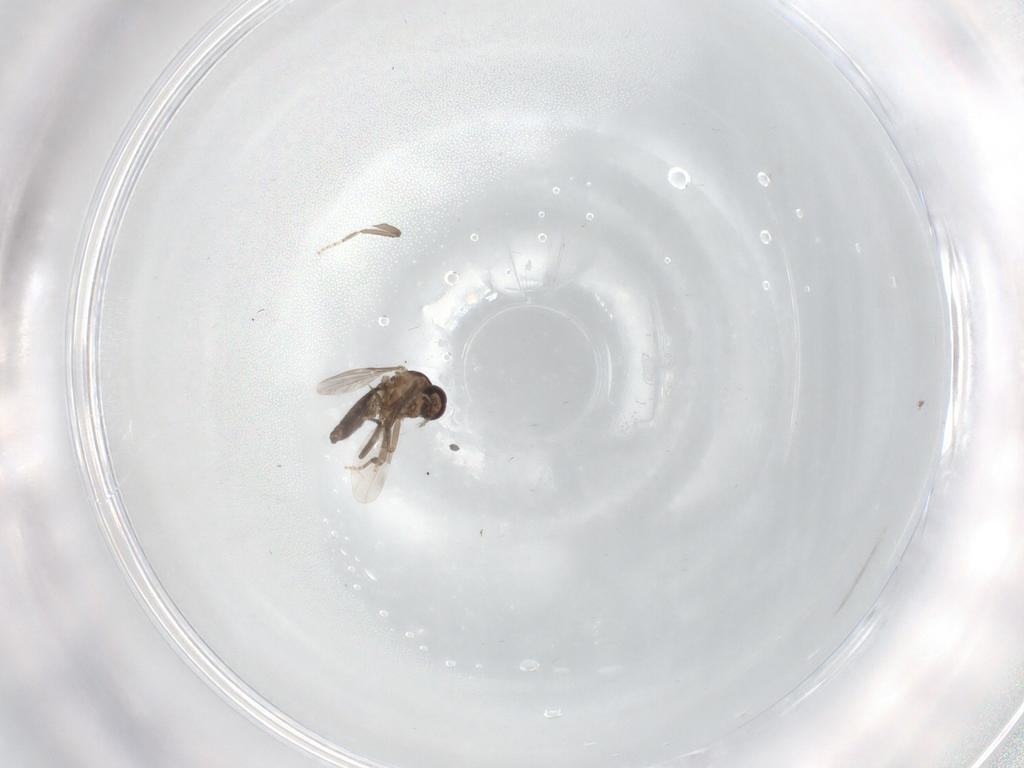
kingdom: Animalia
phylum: Arthropoda
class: Insecta
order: Diptera
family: Ceratopogonidae
